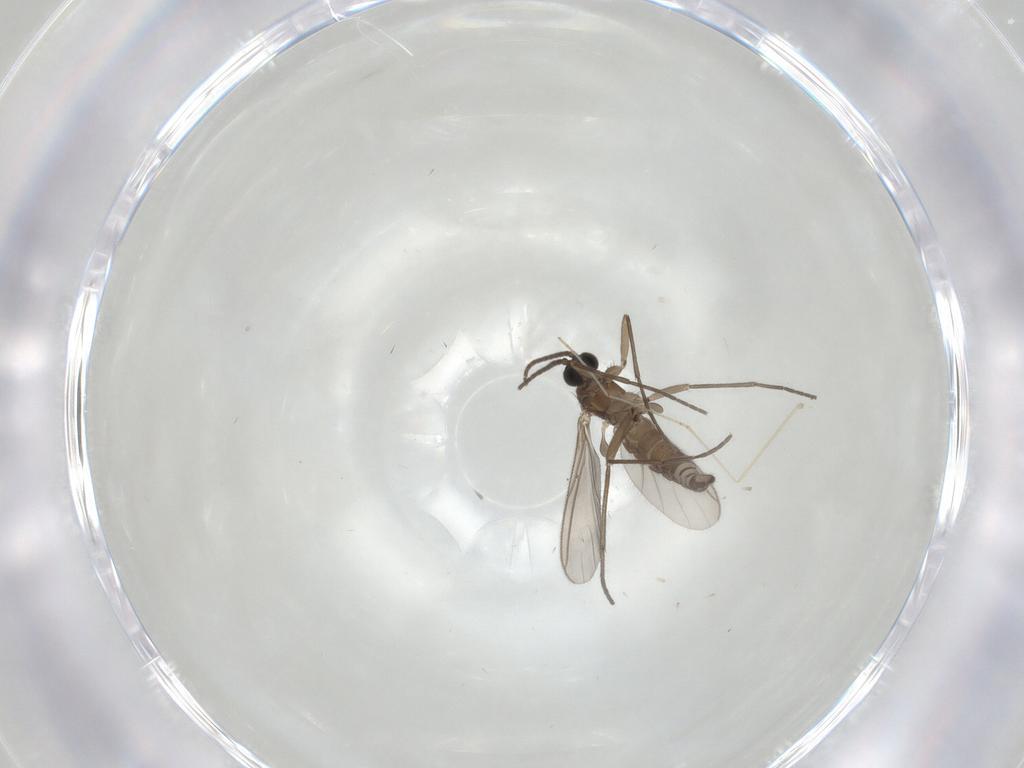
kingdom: Animalia
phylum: Arthropoda
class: Insecta
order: Diptera
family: Sciaridae
